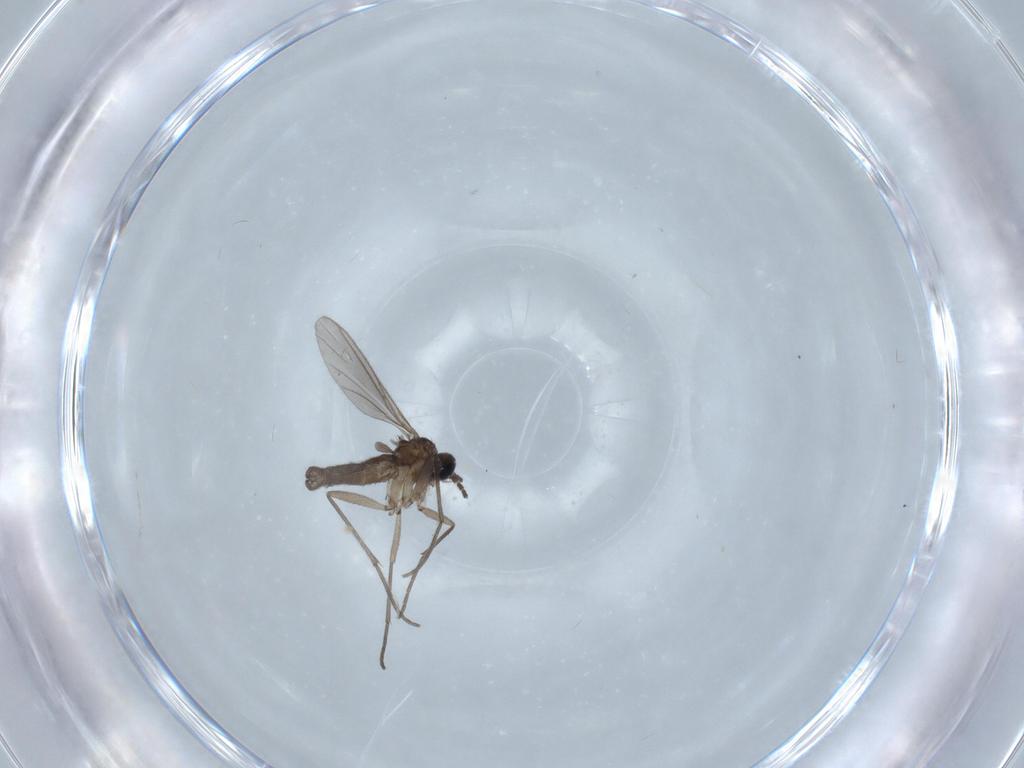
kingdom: Animalia
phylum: Arthropoda
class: Insecta
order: Diptera
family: Sciaridae
